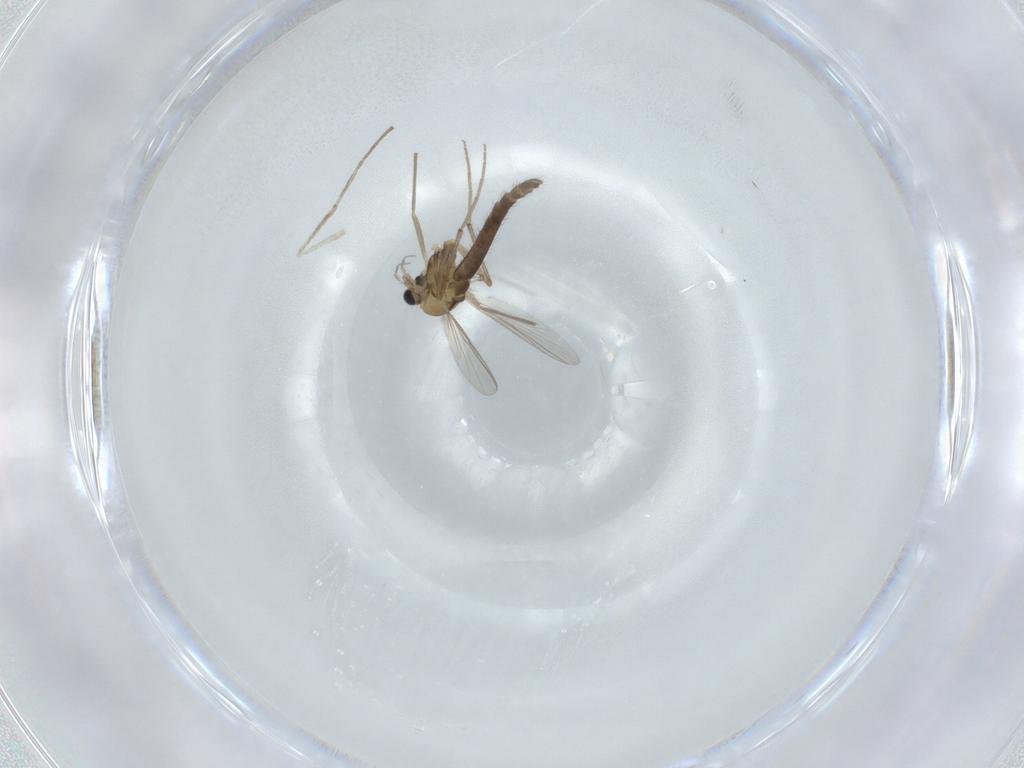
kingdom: Animalia
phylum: Arthropoda
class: Insecta
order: Diptera
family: Chironomidae
